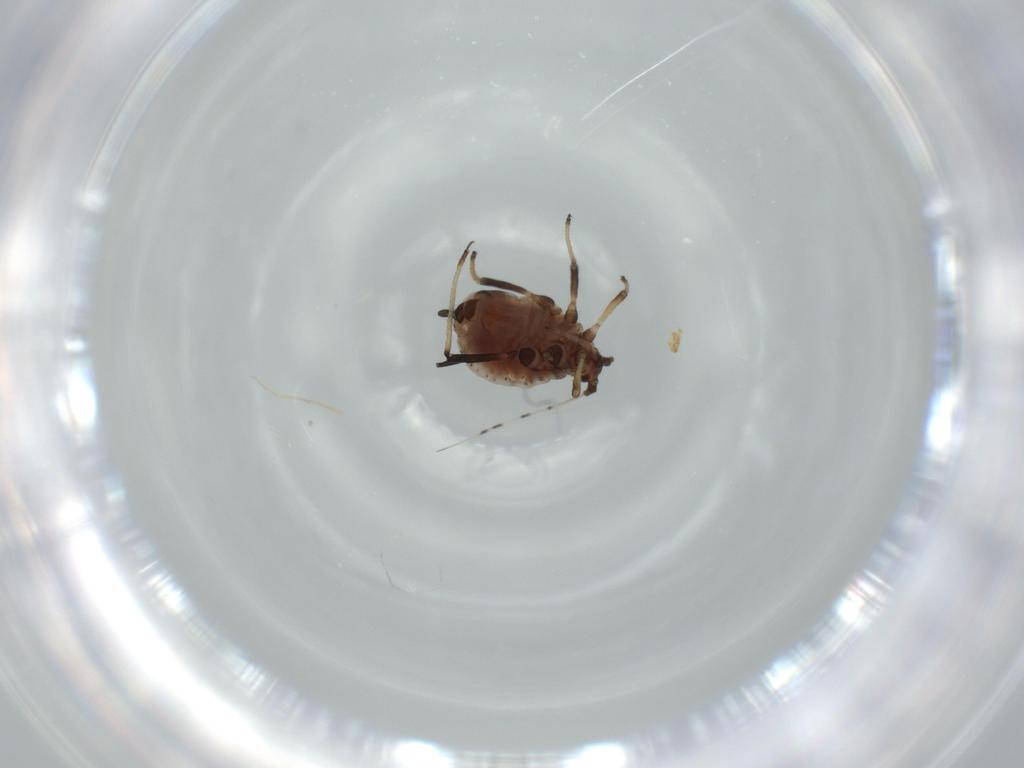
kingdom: Animalia
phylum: Arthropoda
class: Insecta
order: Hemiptera
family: Aphididae
